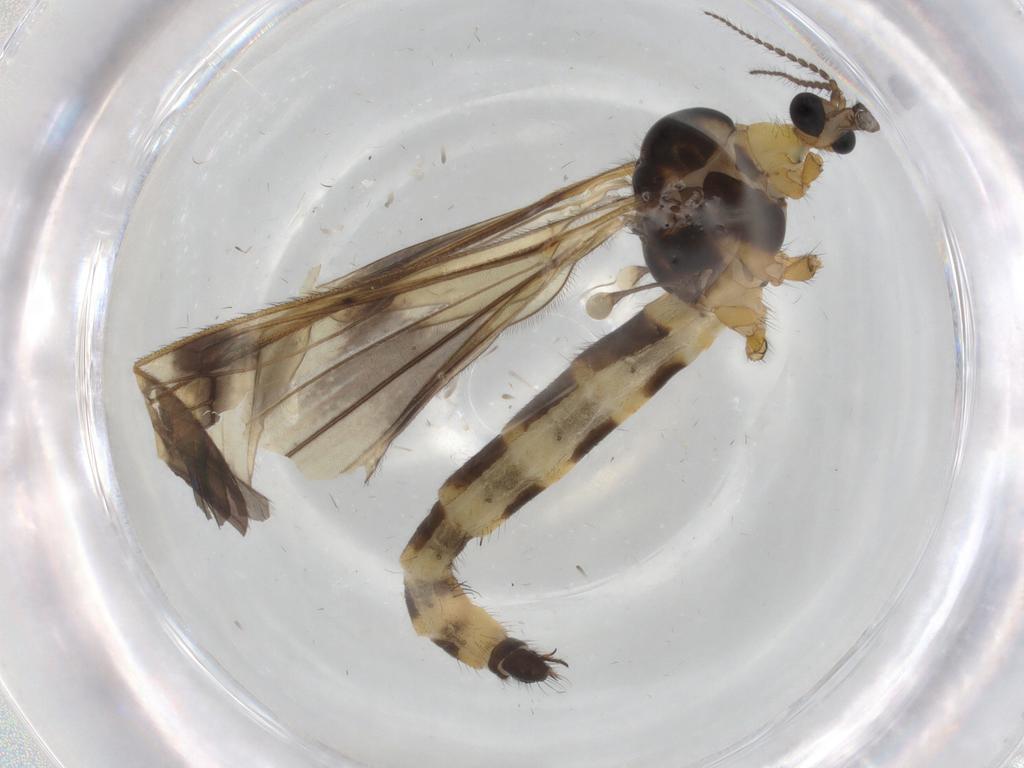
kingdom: Animalia
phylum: Arthropoda
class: Insecta
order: Diptera
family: Limoniidae
